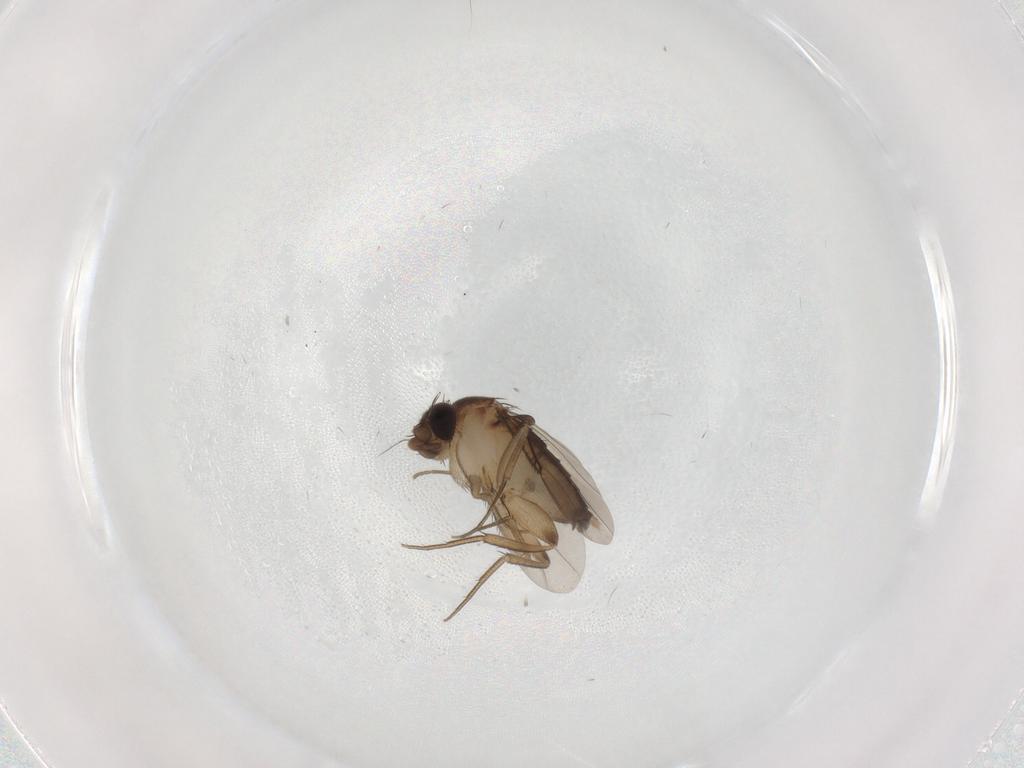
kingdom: Animalia
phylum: Arthropoda
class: Insecta
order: Diptera
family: Phoridae
